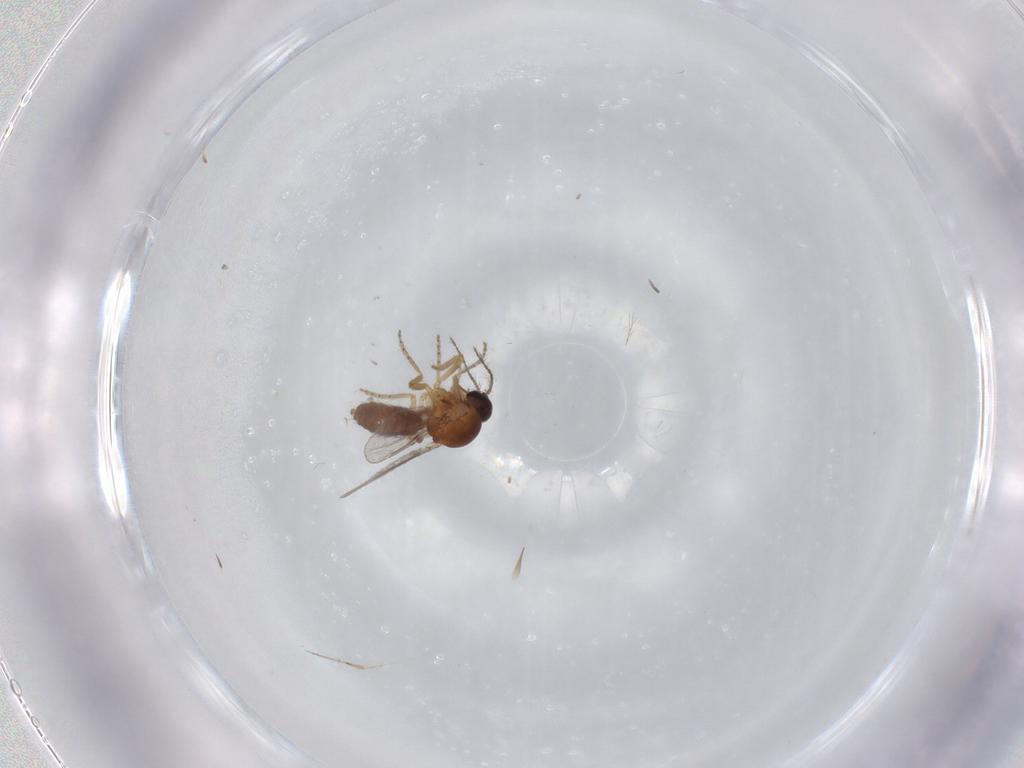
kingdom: Animalia
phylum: Arthropoda
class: Insecta
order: Diptera
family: Ceratopogonidae
